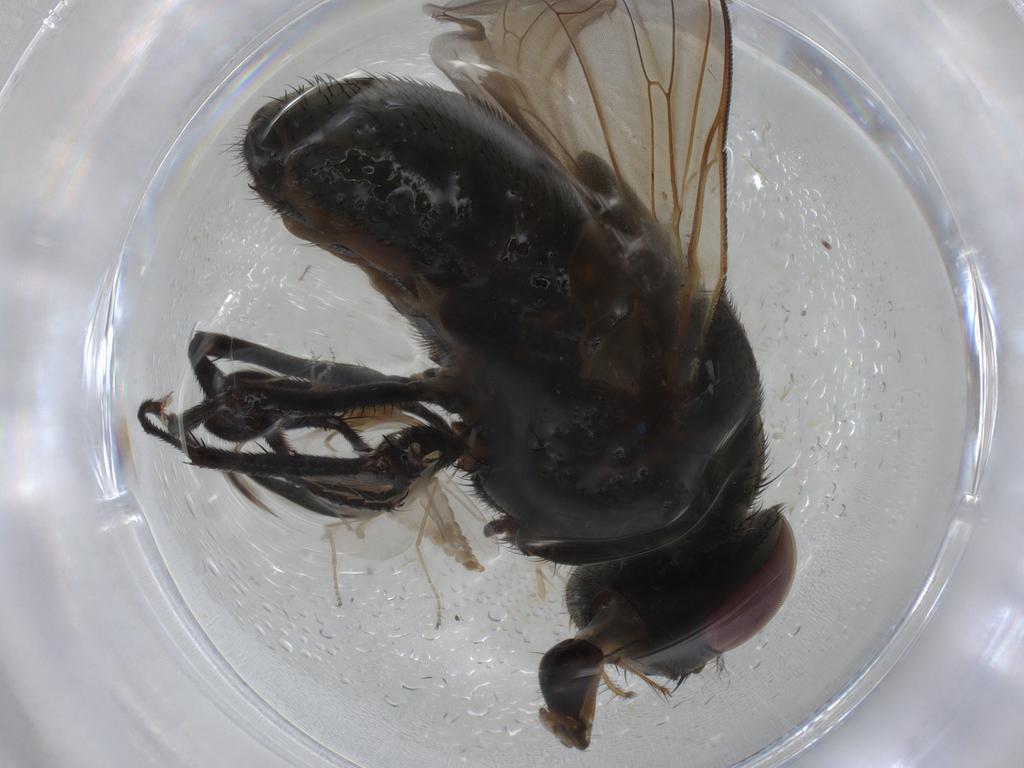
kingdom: Animalia
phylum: Arthropoda
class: Insecta
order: Diptera
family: Cecidomyiidae
